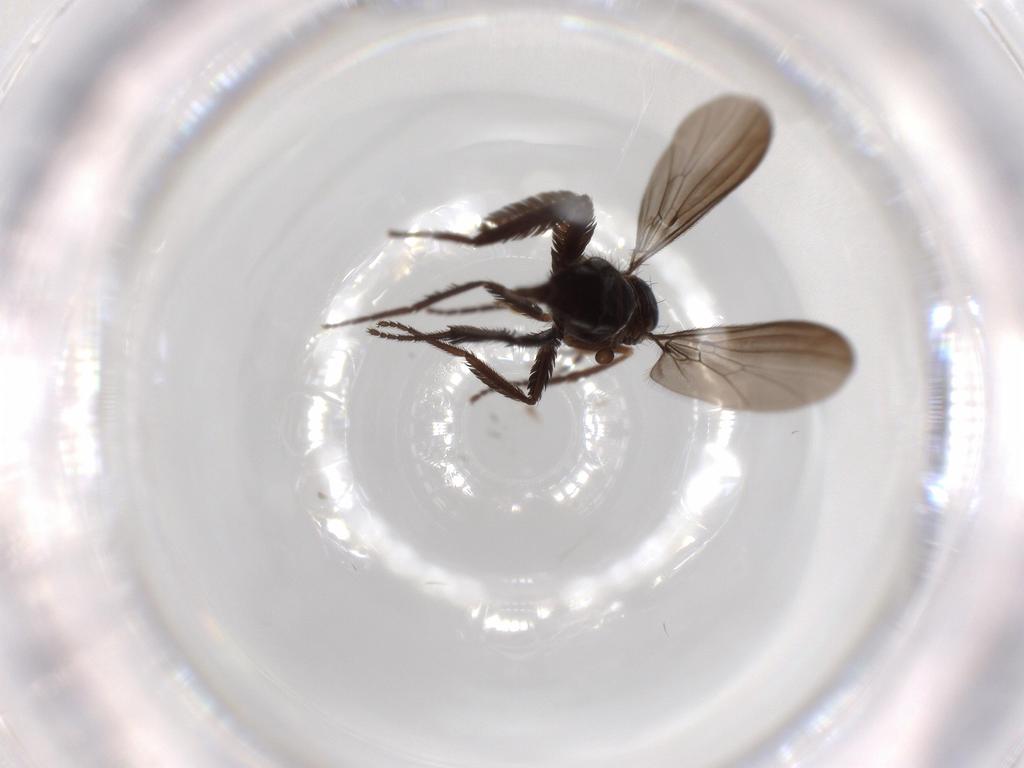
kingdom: Animalia
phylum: Arthropoda
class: Insecta
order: Diptera
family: Empididae
